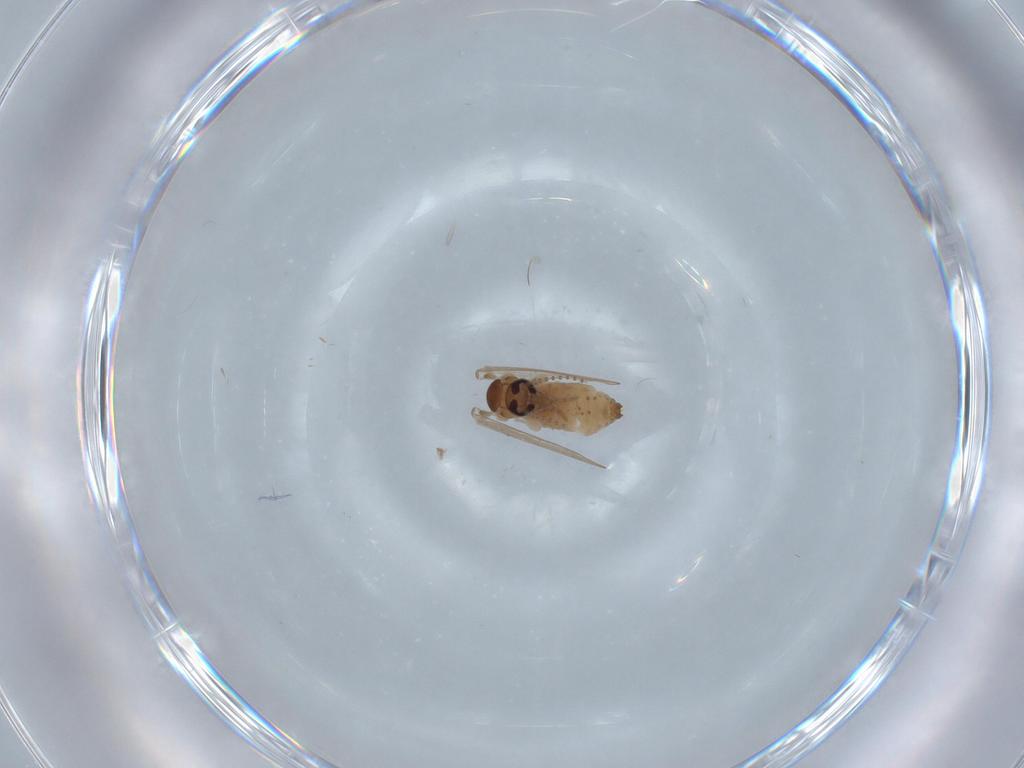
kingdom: Animalia
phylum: Arthropoda
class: Insecta
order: Diptera
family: Psychodidae
